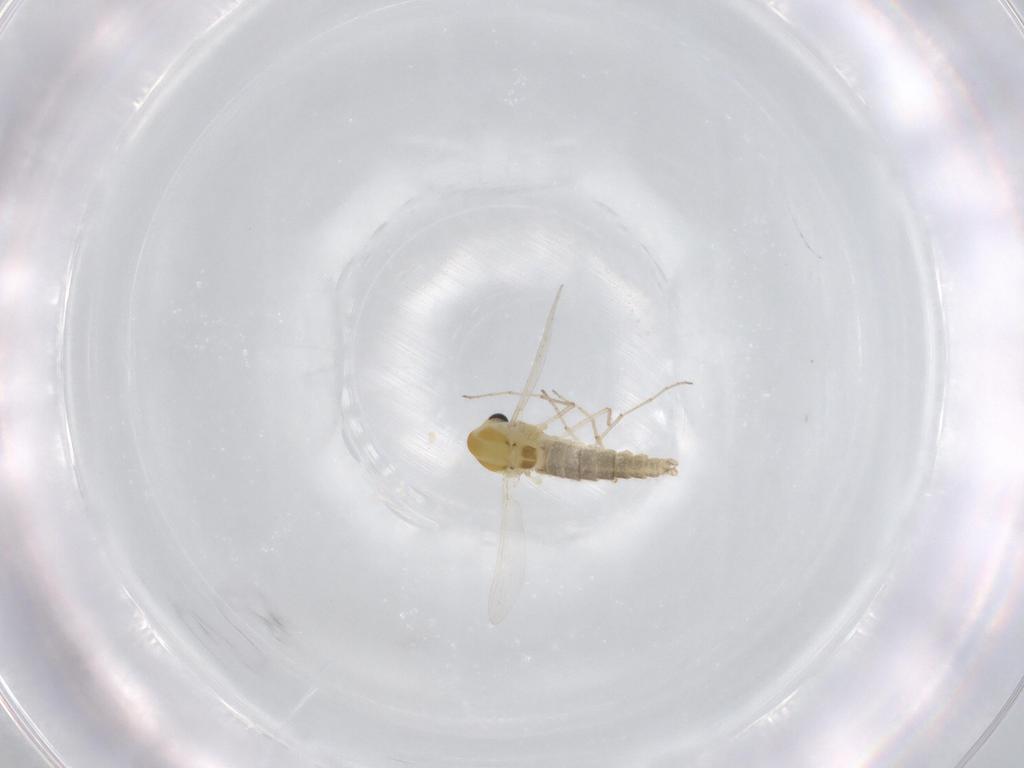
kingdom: Animalia
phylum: Arthropoda
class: Insecta
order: Diptera
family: Chironomidae
